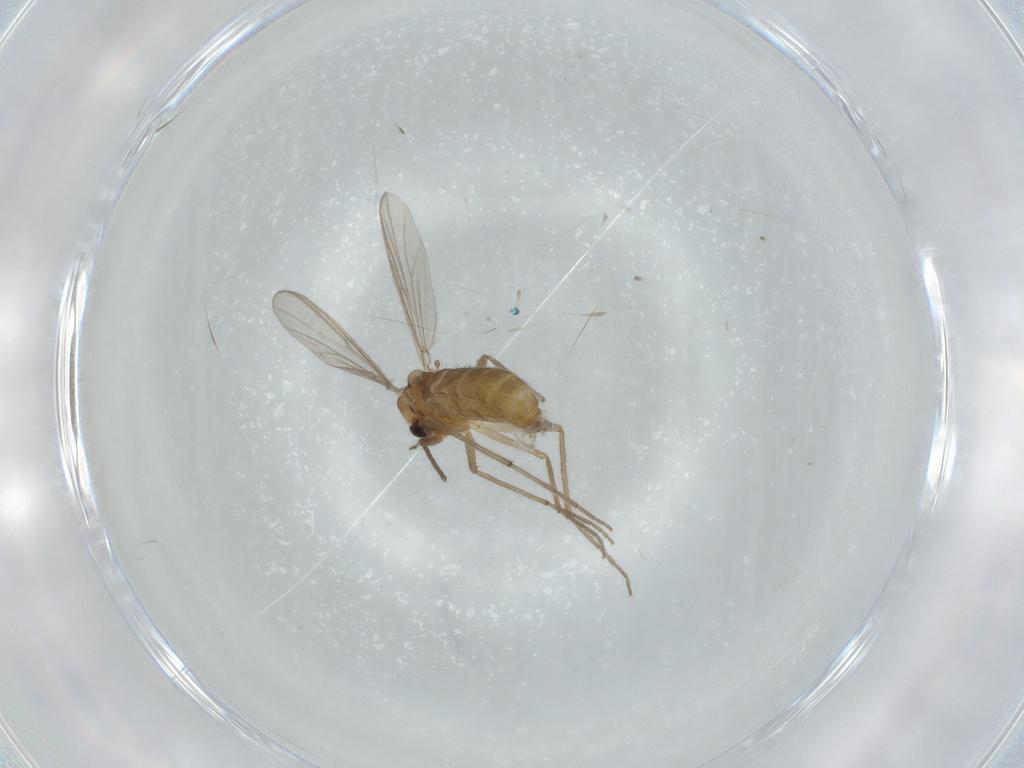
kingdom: Animalia
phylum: Arthropoda
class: Insecta
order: Diptera
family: Chironomidae
